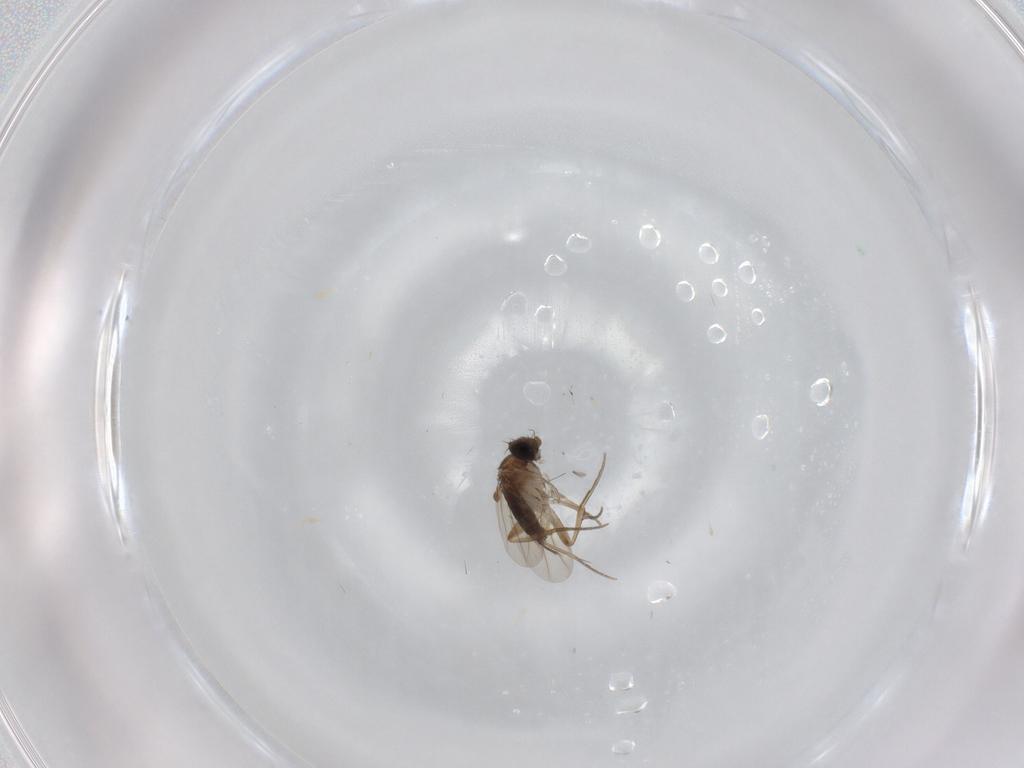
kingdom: Animalia
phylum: Arthropoda
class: Insecta
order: Diptera
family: Phoridae
